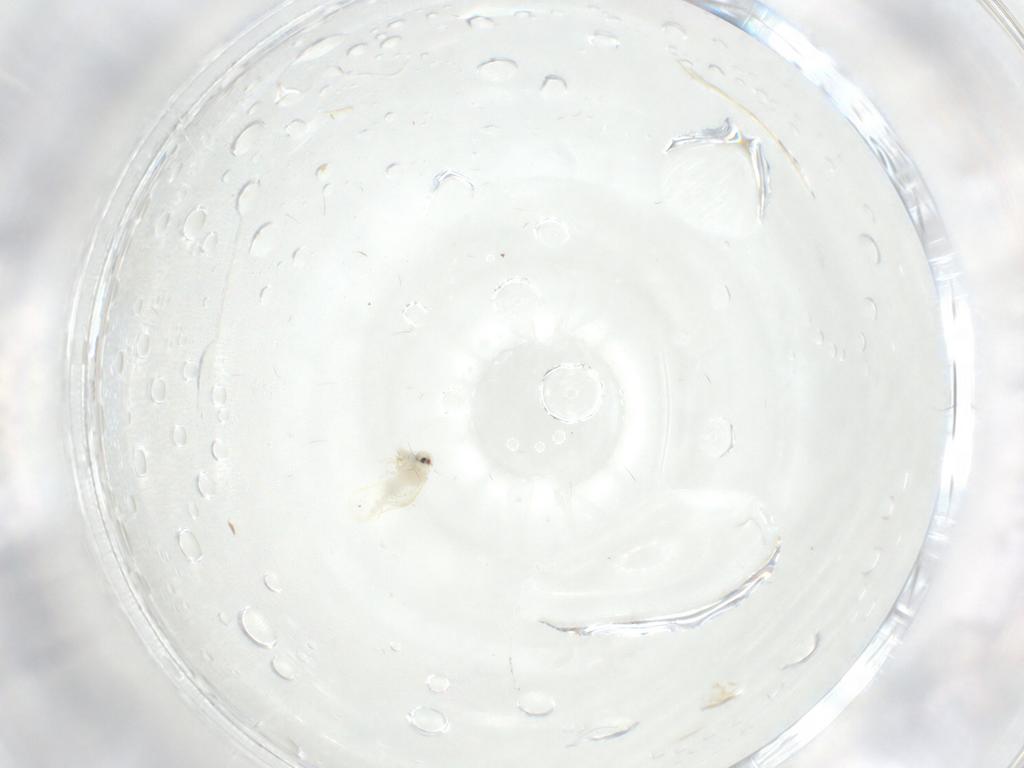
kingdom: Animalia
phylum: Arthropoda
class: Insecta
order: Hemiptera
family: Cicadellidae
